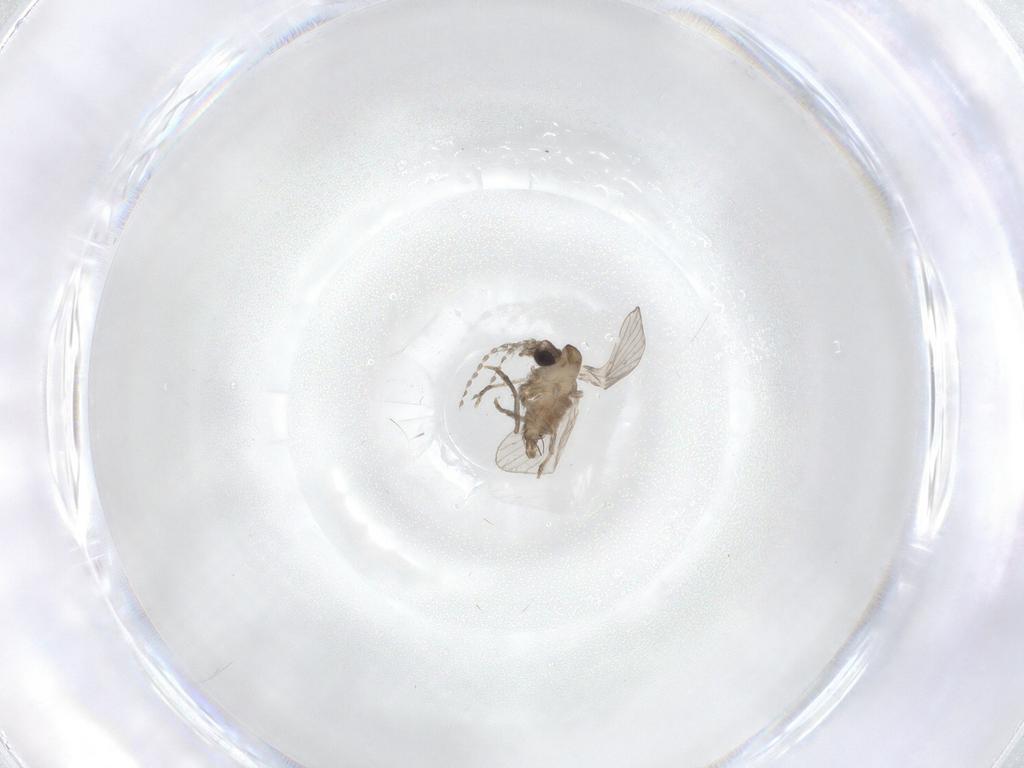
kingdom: Animalia
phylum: Arthropoda
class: Insecta
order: Diptera
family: Psychodidae
